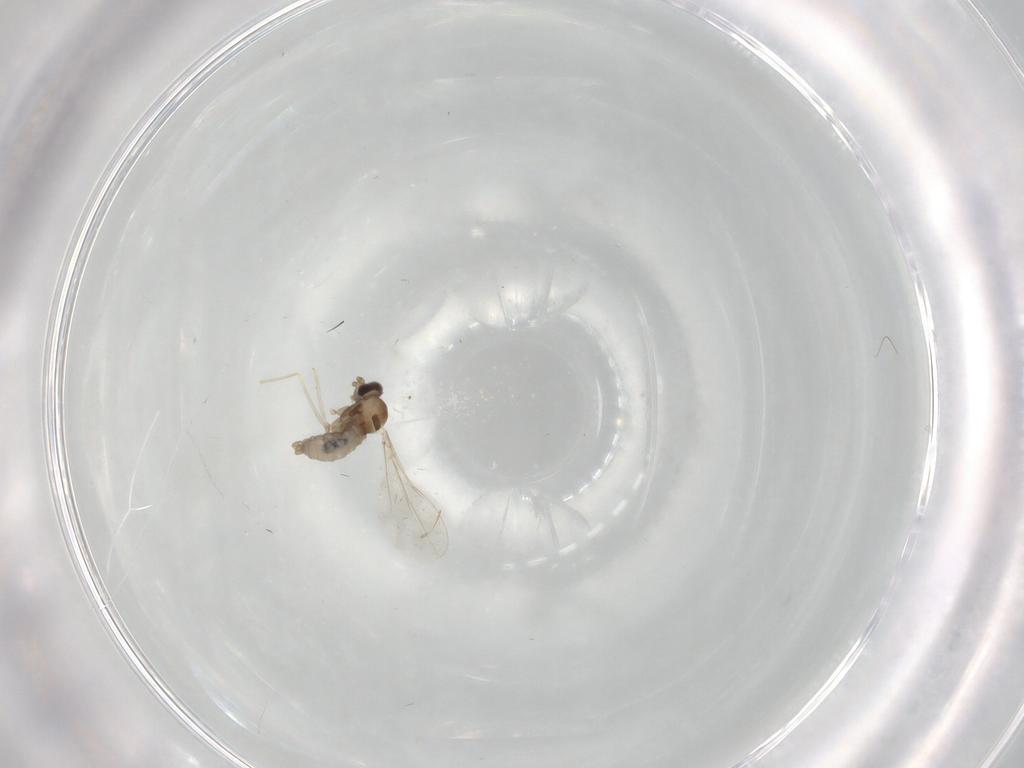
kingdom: Animalia
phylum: Arthropoda
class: Insecta
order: Diptera
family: Cecidomyiidae
